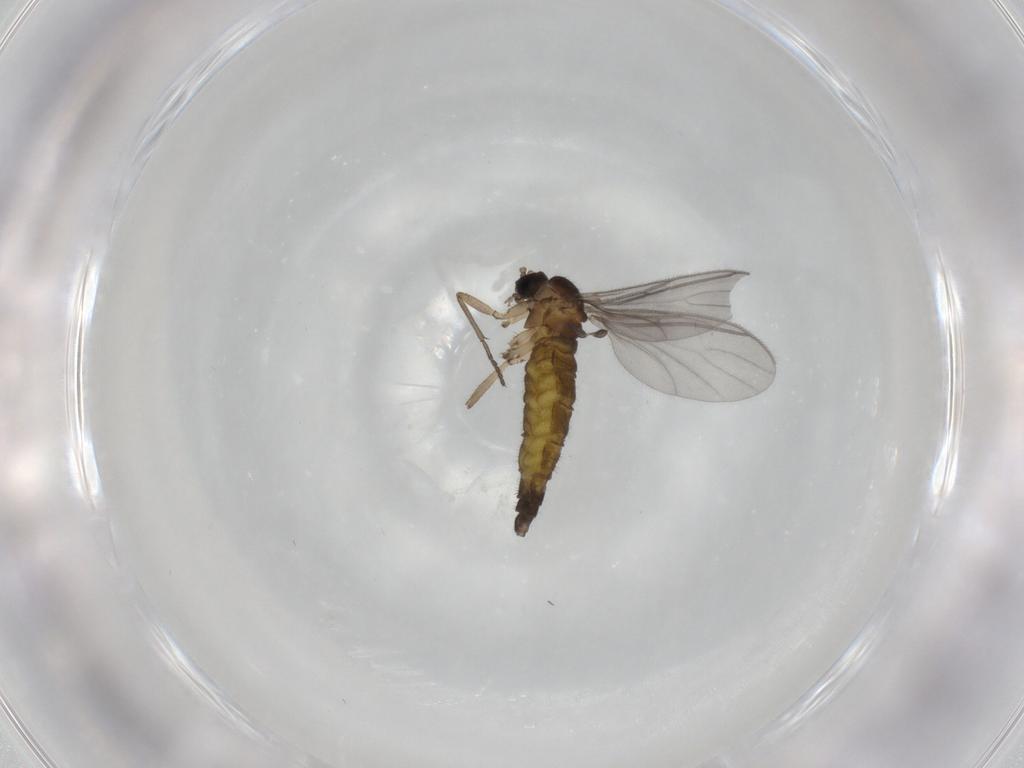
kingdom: Animalia
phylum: Arthropoda
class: Insecta
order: Diptera
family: Sciaridae
